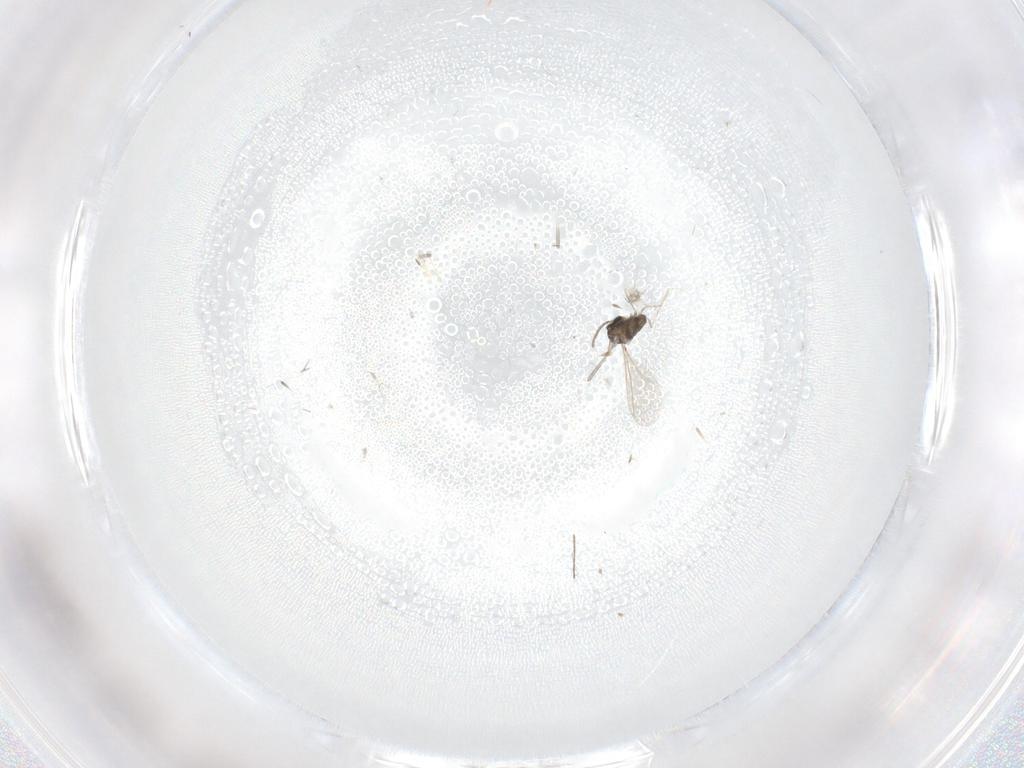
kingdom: Animalia
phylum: Arthropoda
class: Insecta
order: Diptera
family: Cecidomyiidae
